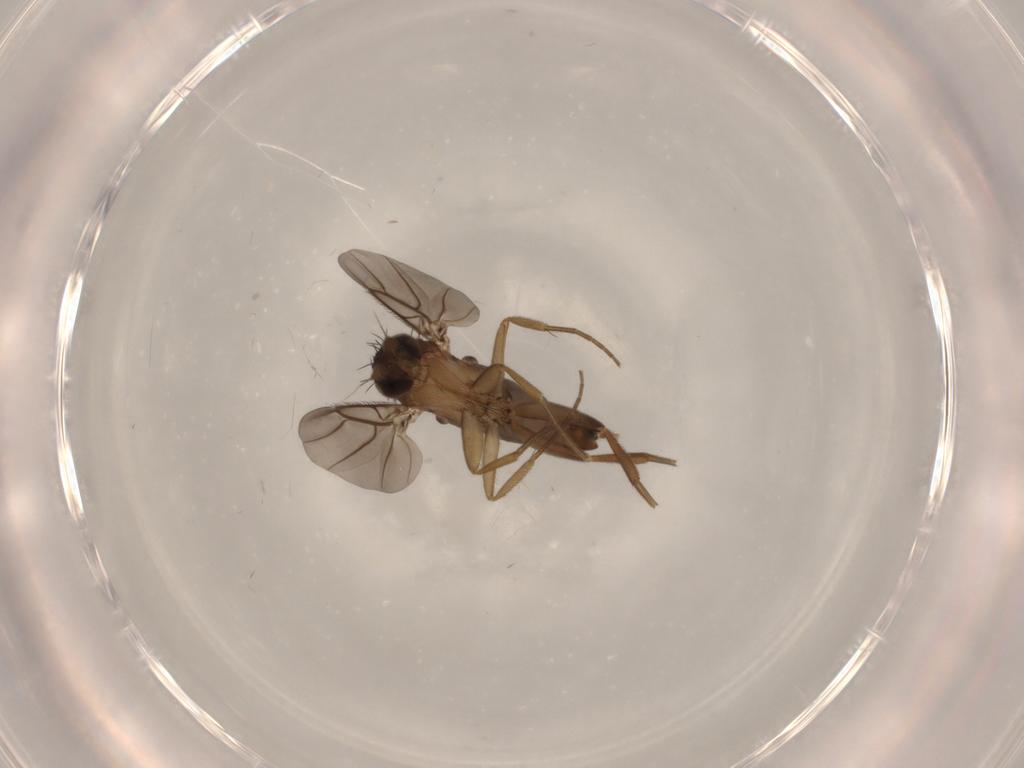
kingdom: Animalia
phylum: Arthropoda
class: Insecta
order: Diptera
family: Phoridae
